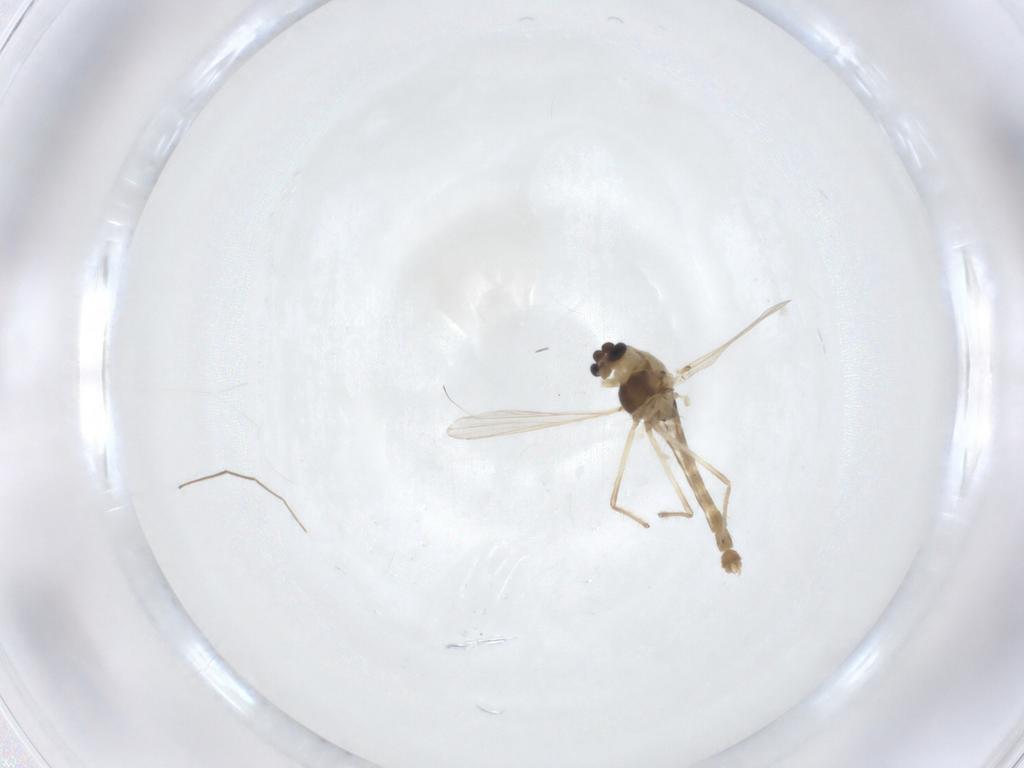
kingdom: Animalia
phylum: Arthropoda
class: Insecta
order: Diptera
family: Chironomidae
